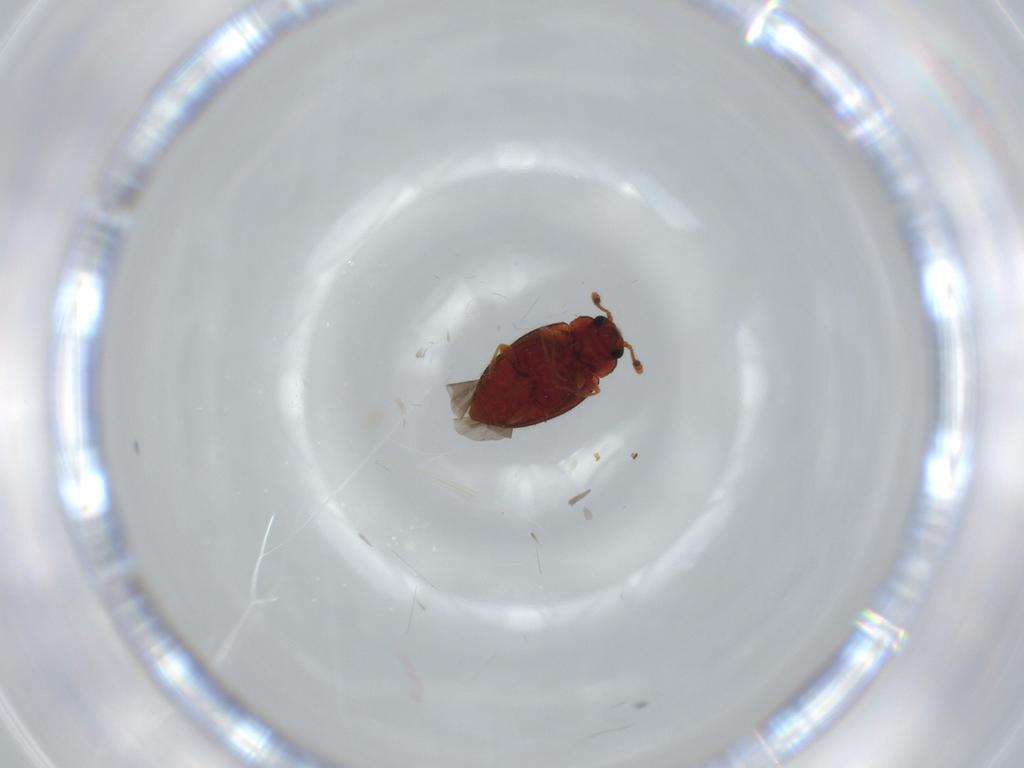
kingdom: Animalia
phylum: Arthropoda
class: Insecta
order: Coleoptera
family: Erotylidae
